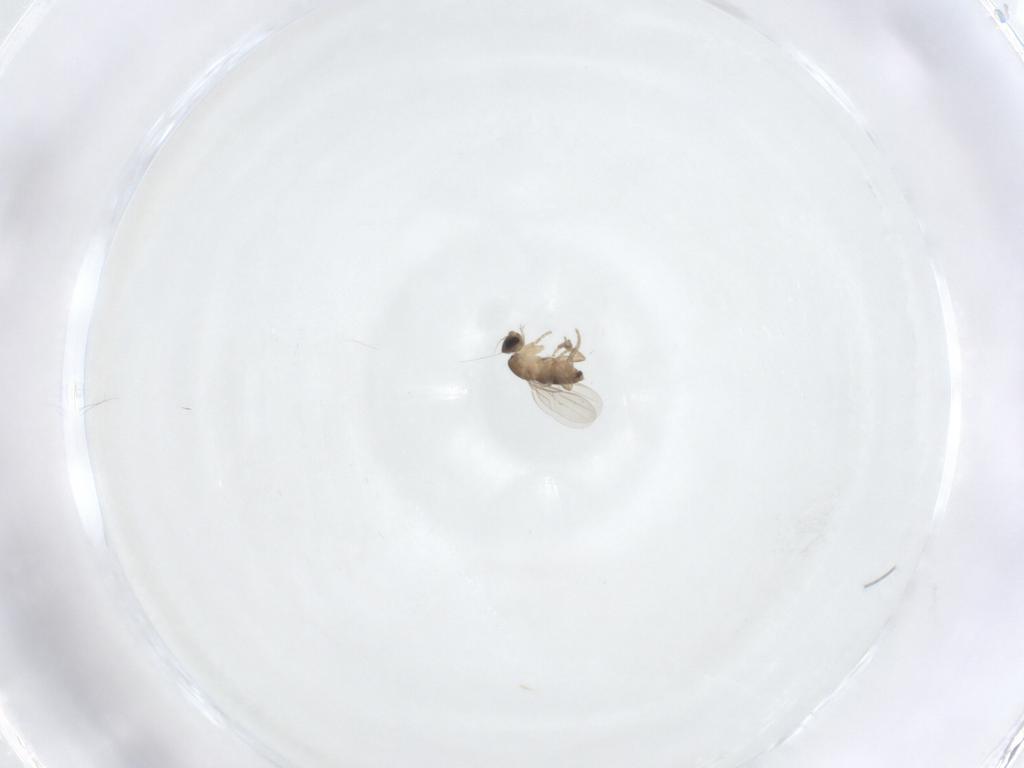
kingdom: Animalia
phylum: Arthropoda
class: Insecta
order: Diptera
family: Phoridae
